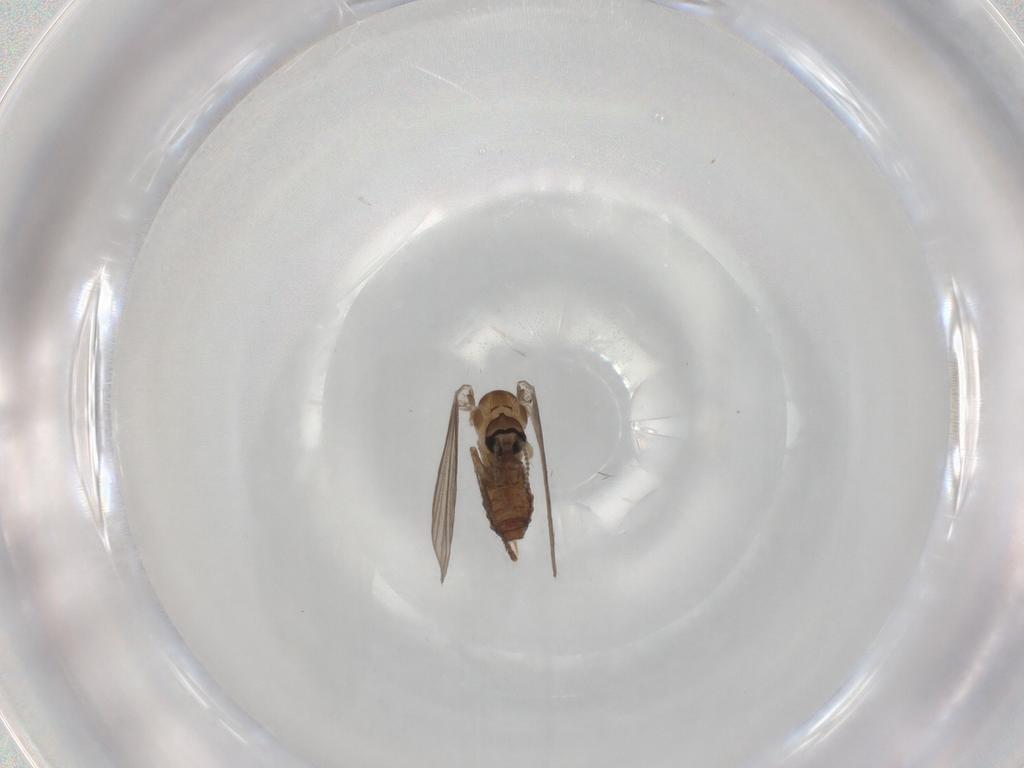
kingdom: Animalia
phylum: Arthropoda
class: Insecta
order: Diptera
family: Psychodidae
